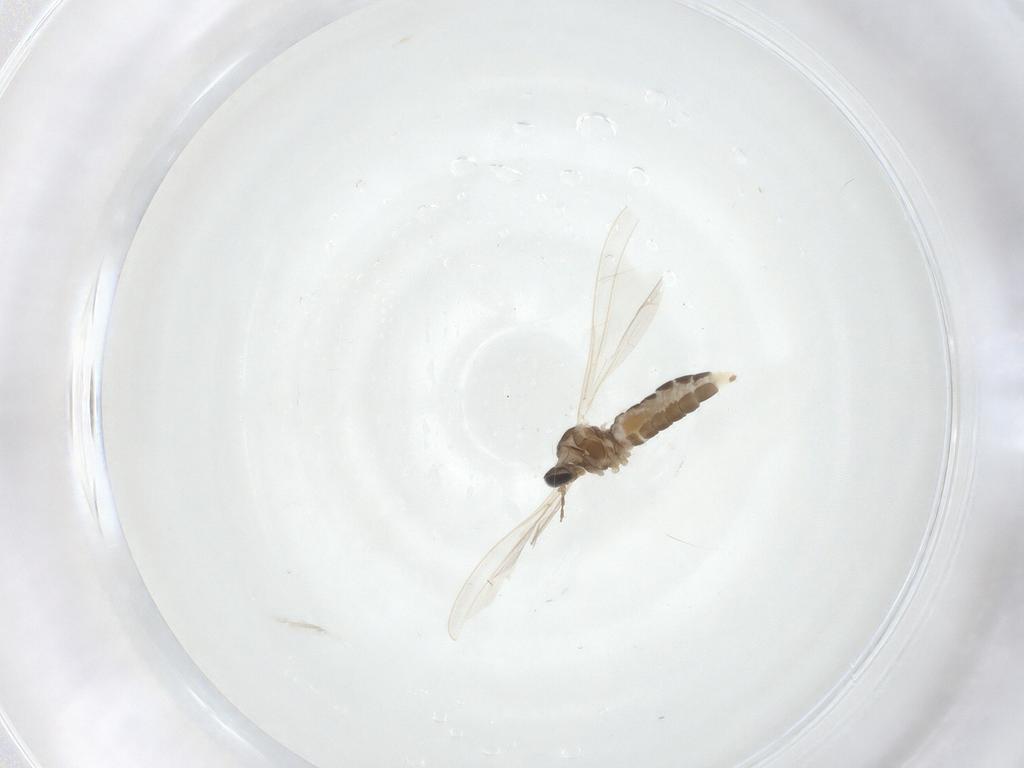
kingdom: Animalia
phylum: Arthropoda
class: Insecta
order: Diptera
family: Cecidomyiidae
